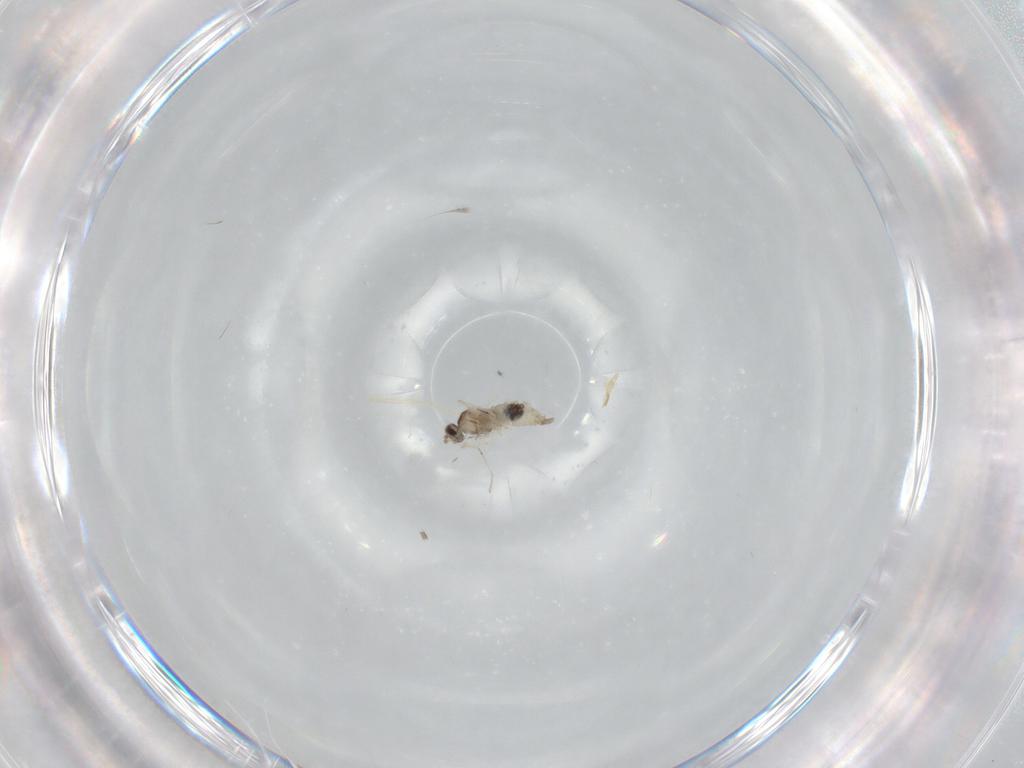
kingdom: Animalia
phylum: Arthropoda
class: Insecta
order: Diptera
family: Cecidomyiidae
